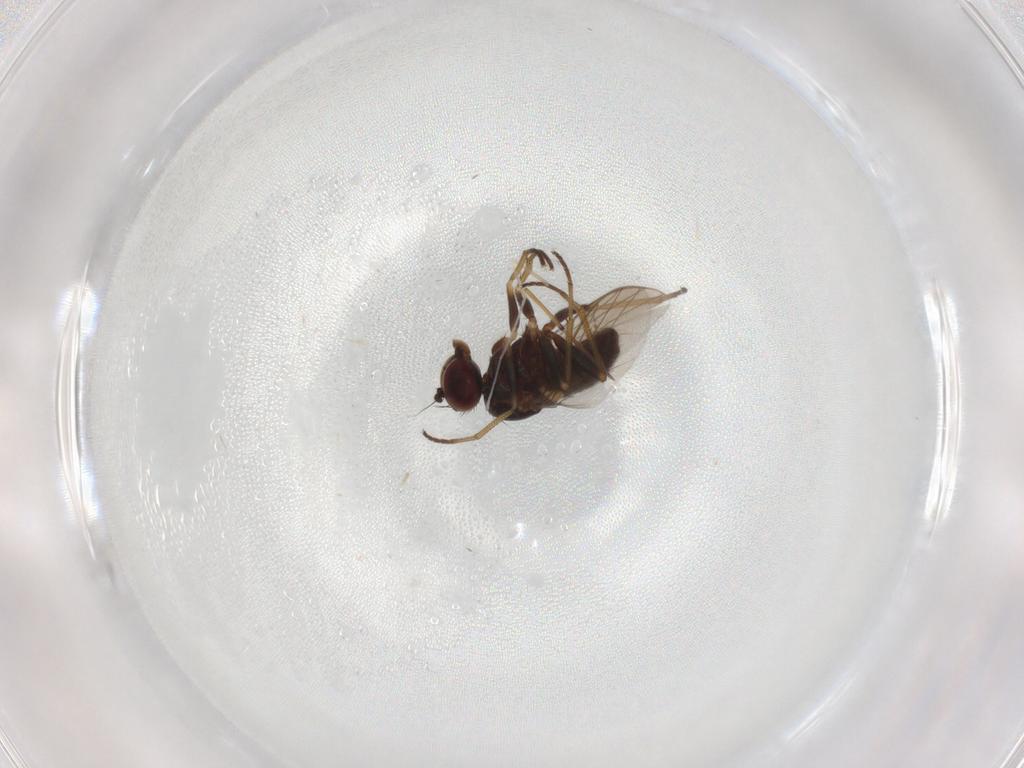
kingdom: Animalia
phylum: Arthropoda
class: Insecta
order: Diptera
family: Dolichopodidae
